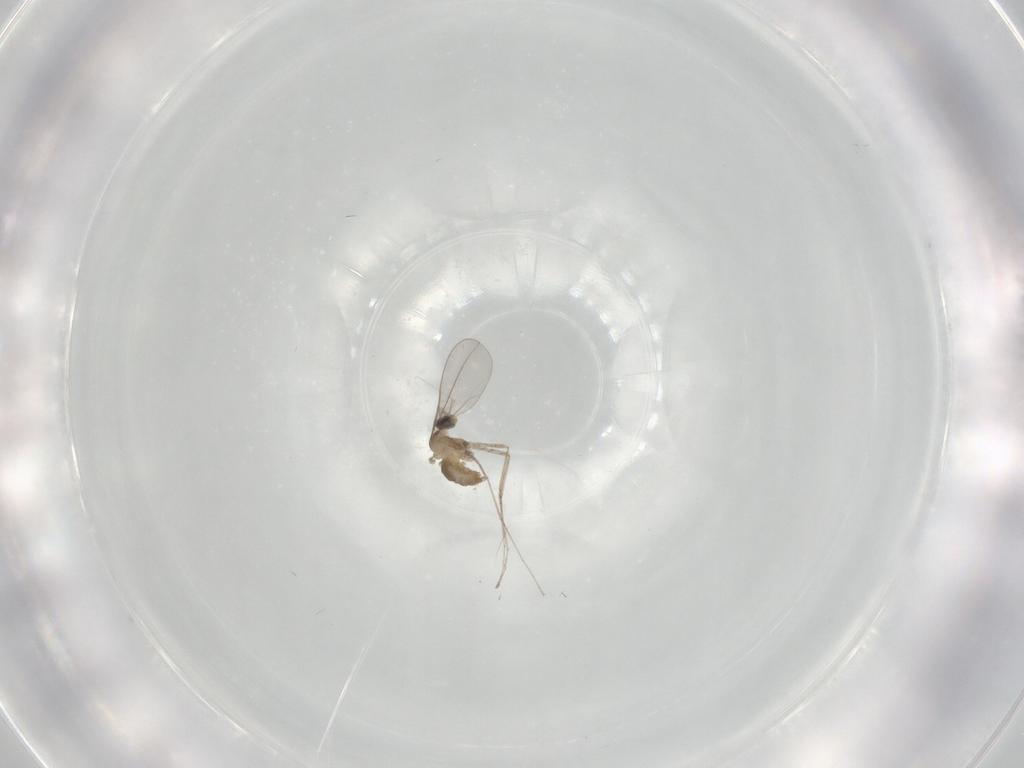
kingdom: Animalia
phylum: Arthropoda
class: Insecta
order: Diptera
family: Cecidomyiidae
